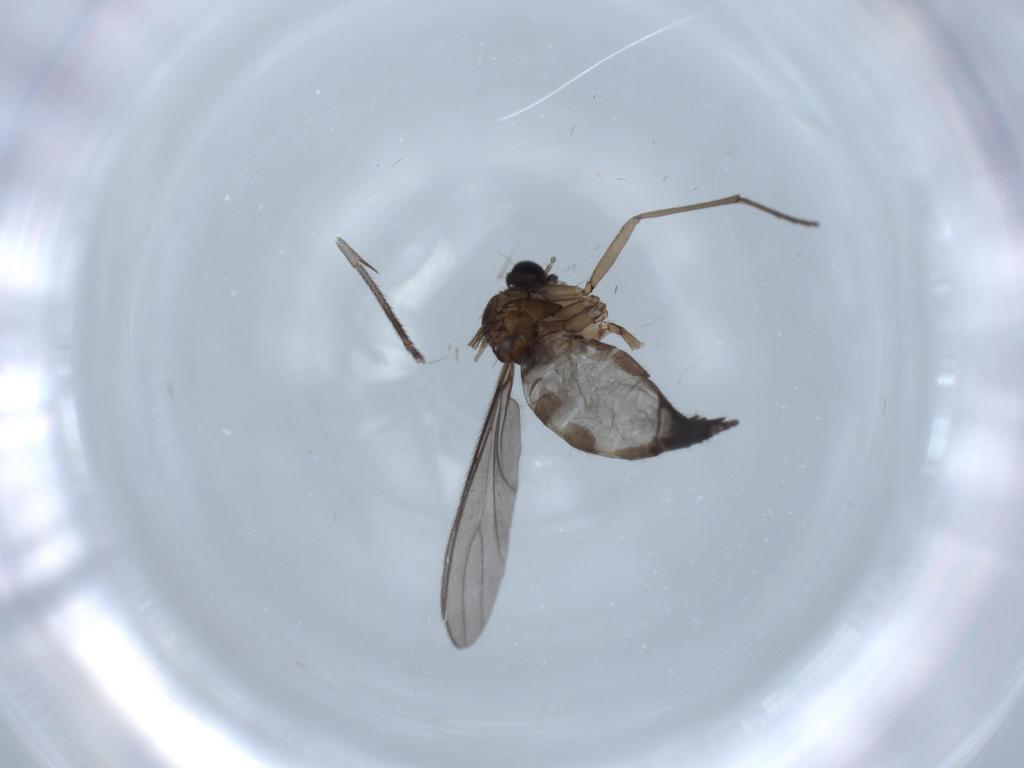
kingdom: Animalia
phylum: Arthropoda
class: Insecta
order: Diptera
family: Sciaridae
